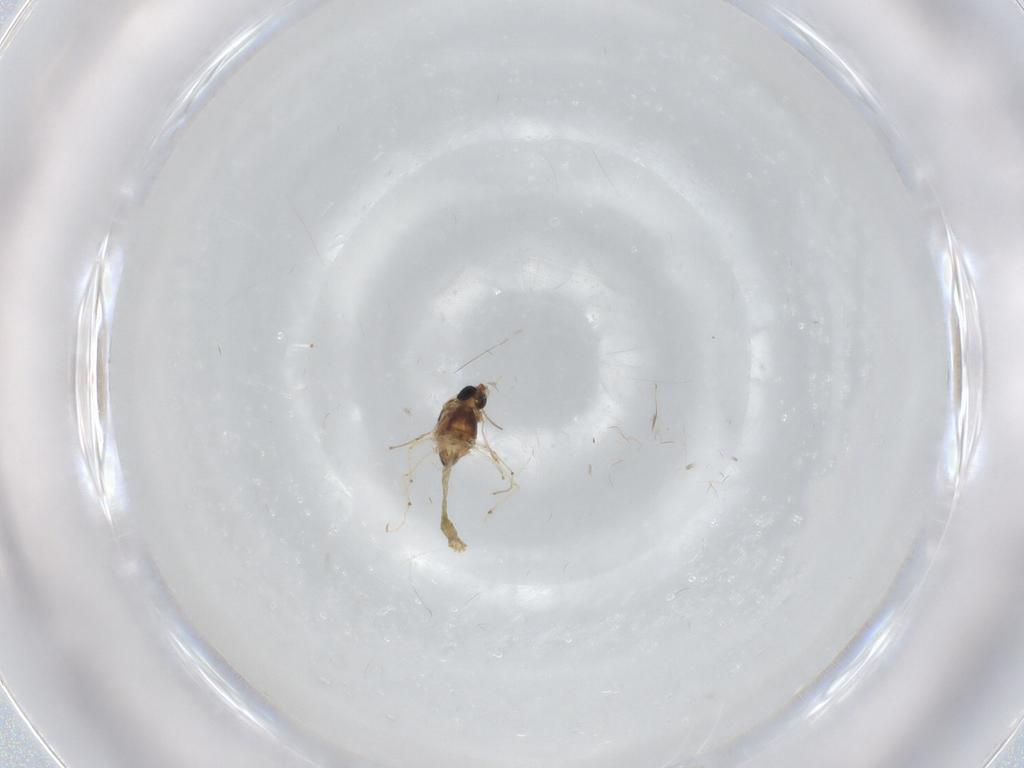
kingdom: Animalia
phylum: Arthropoda
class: Insecta
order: Diptera
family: Chironomidae
